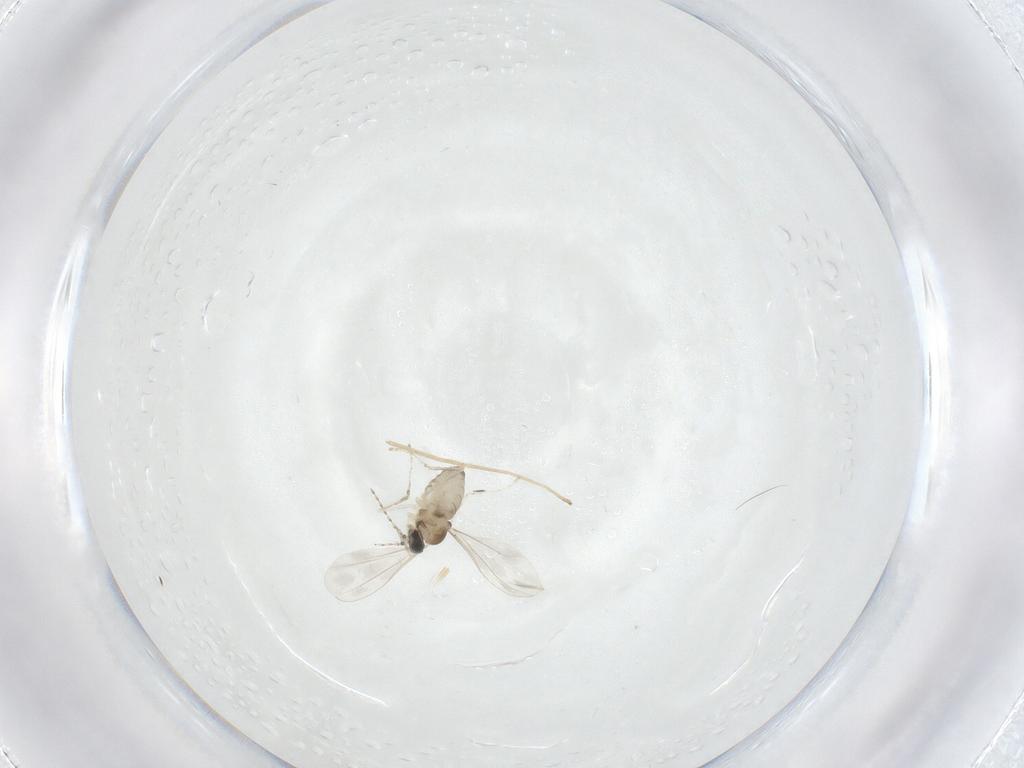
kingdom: Animalia
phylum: Arthropoda
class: Insecta
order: Diptera
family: Cecidomyiidae
